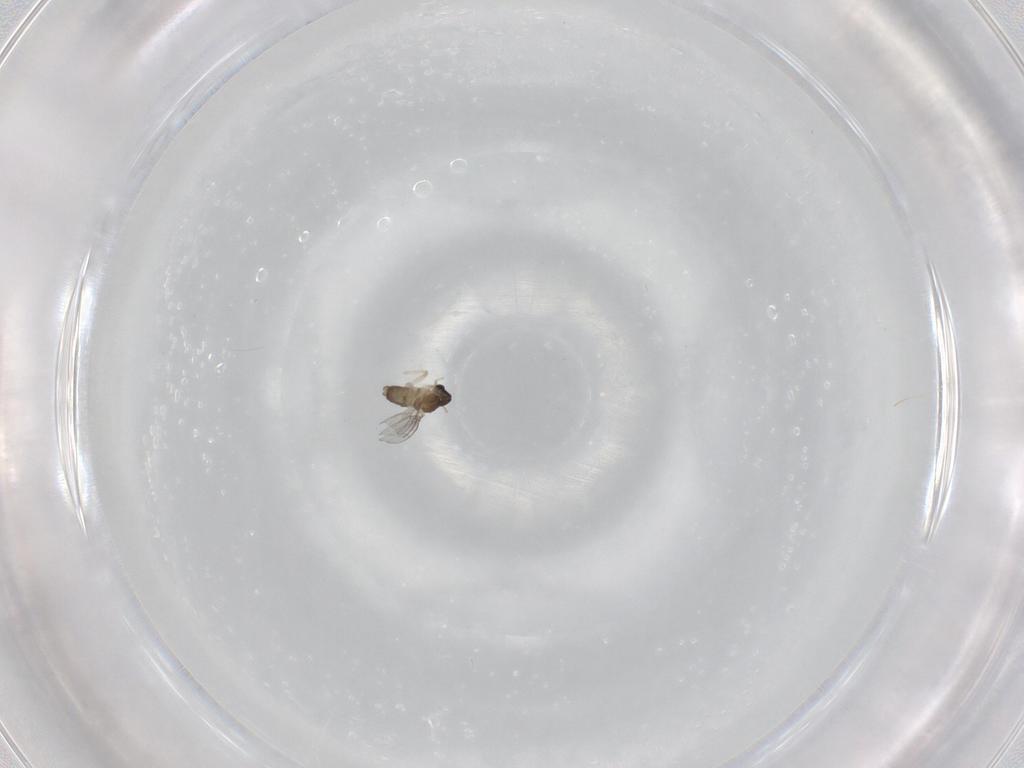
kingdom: Animalia
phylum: Arthropoda
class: Insecta
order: Diptera
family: Cecidomyiidae
